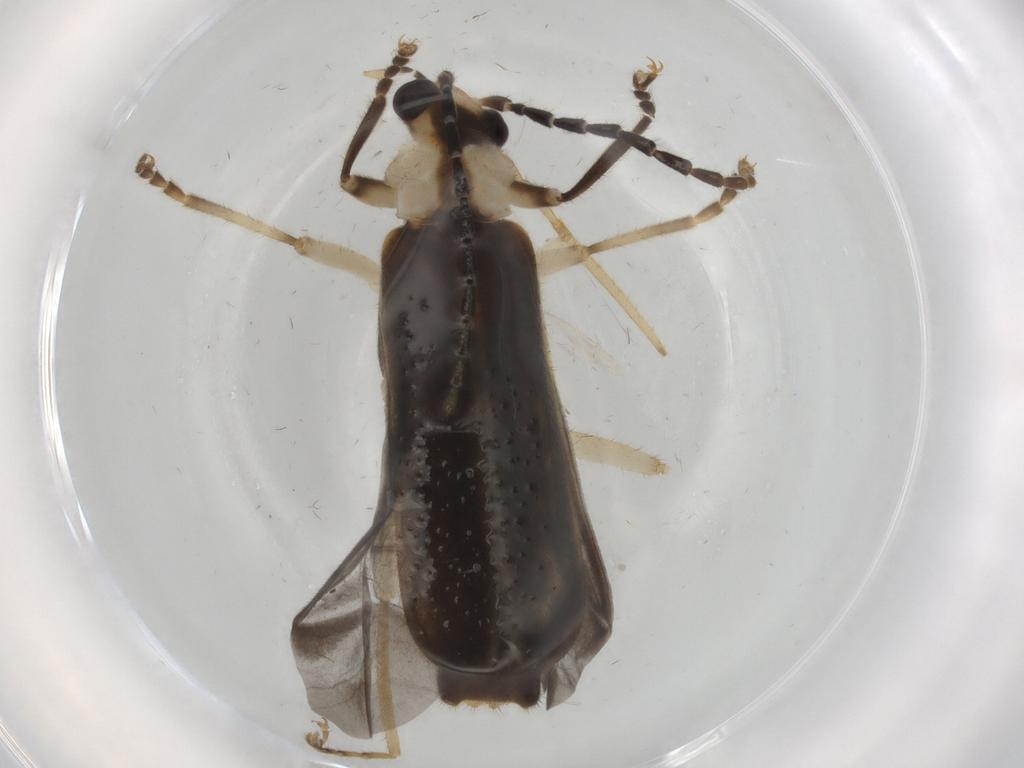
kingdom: Animalia
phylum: Arthropoda
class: Insecta
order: Coleoptera
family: Cantharidae
